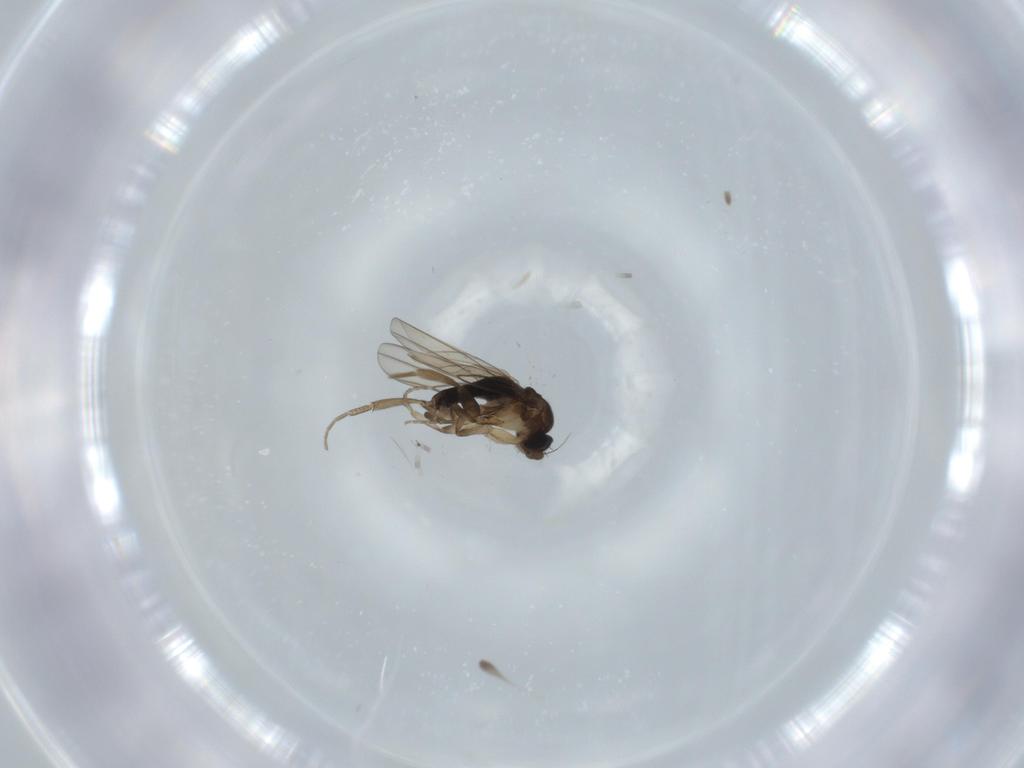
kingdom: Animalia
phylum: Arthropoda
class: Insecta
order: Diptera
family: Phoridae
